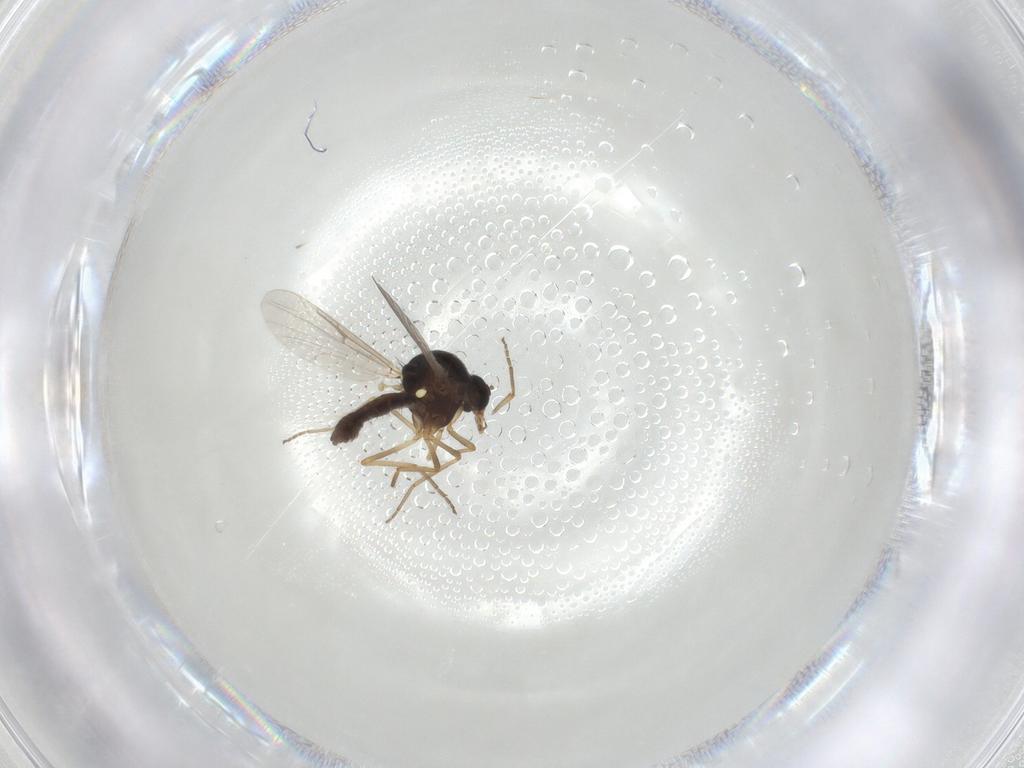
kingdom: Animalia
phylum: Arthropoda
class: Insecta
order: Diptera
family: Ceratopogonidae
